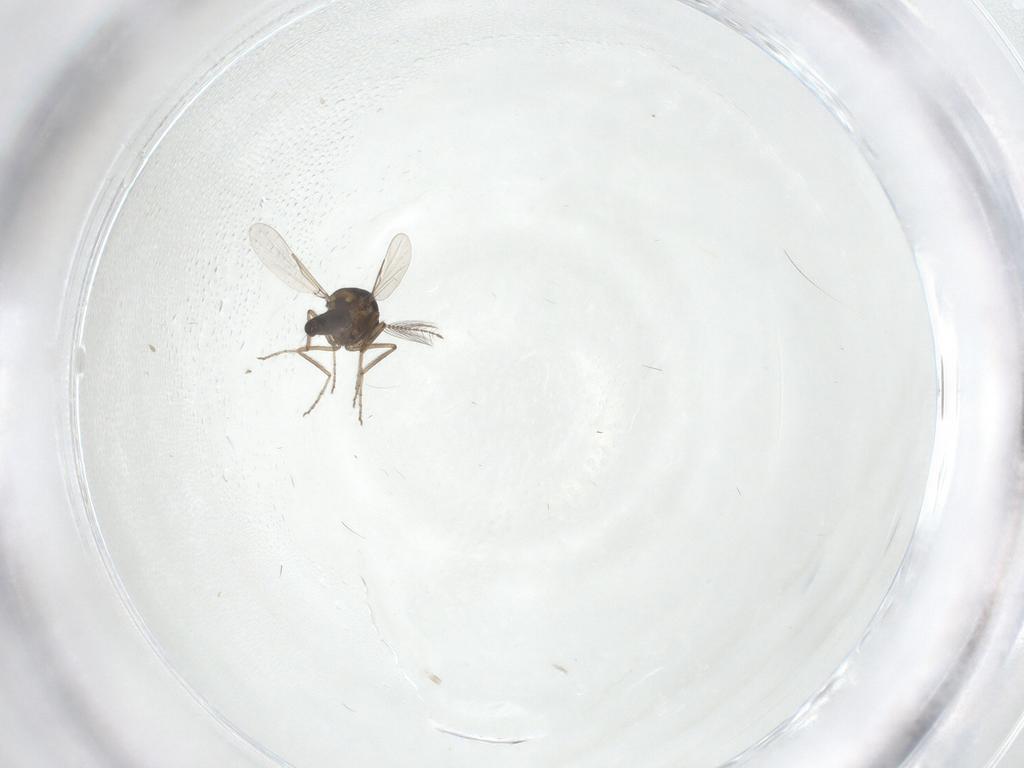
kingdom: Animalia
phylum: Arthropoda
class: Insecta
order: Diptera
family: Ceratopogonidae
